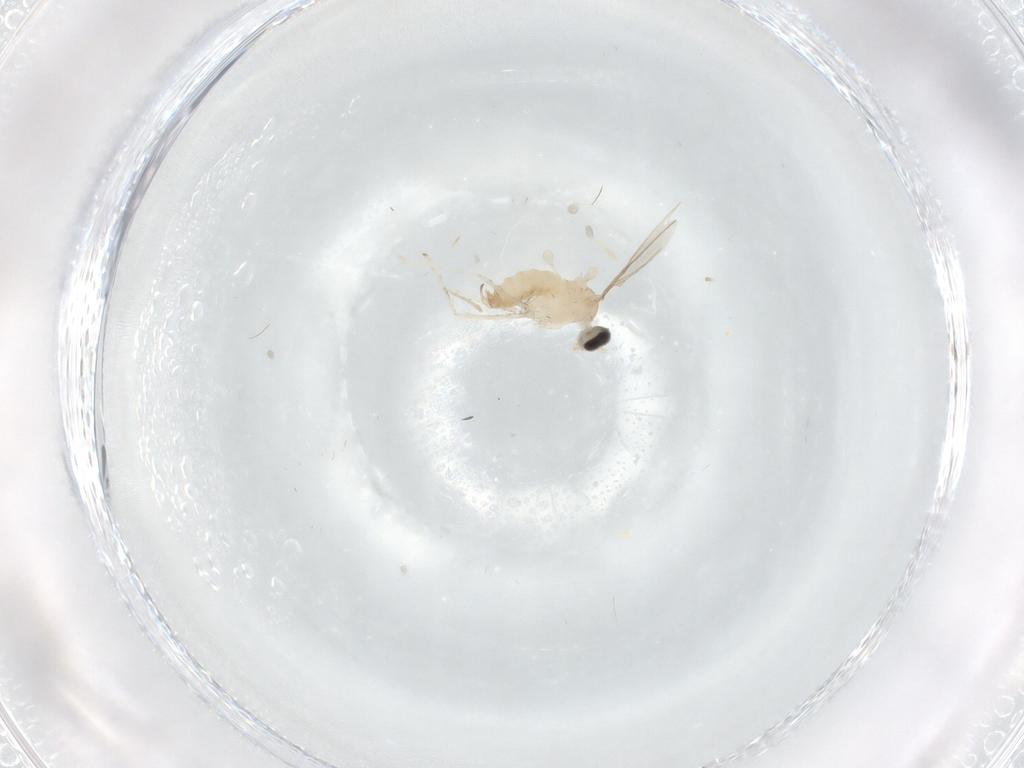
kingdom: Animalia
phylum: Arthropoda
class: Insecta
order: Diptera
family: Cecidomyiidae
